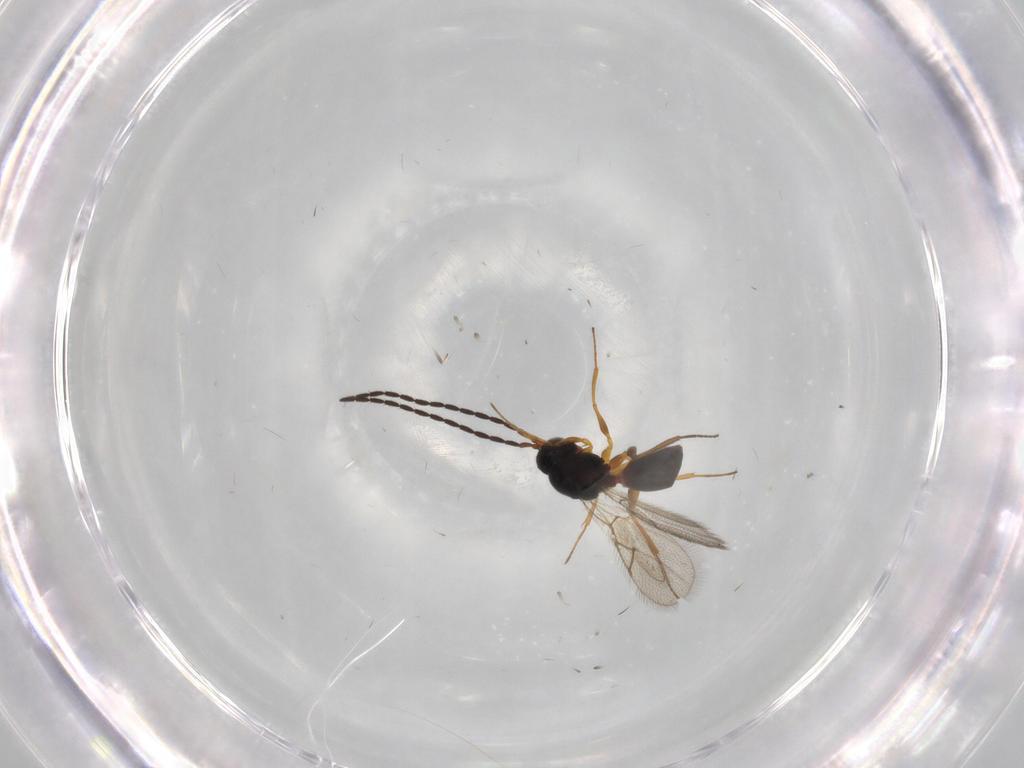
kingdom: Animalia
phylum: Arthropoda
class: Insecta
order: Hymenoptera
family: Figitidae
